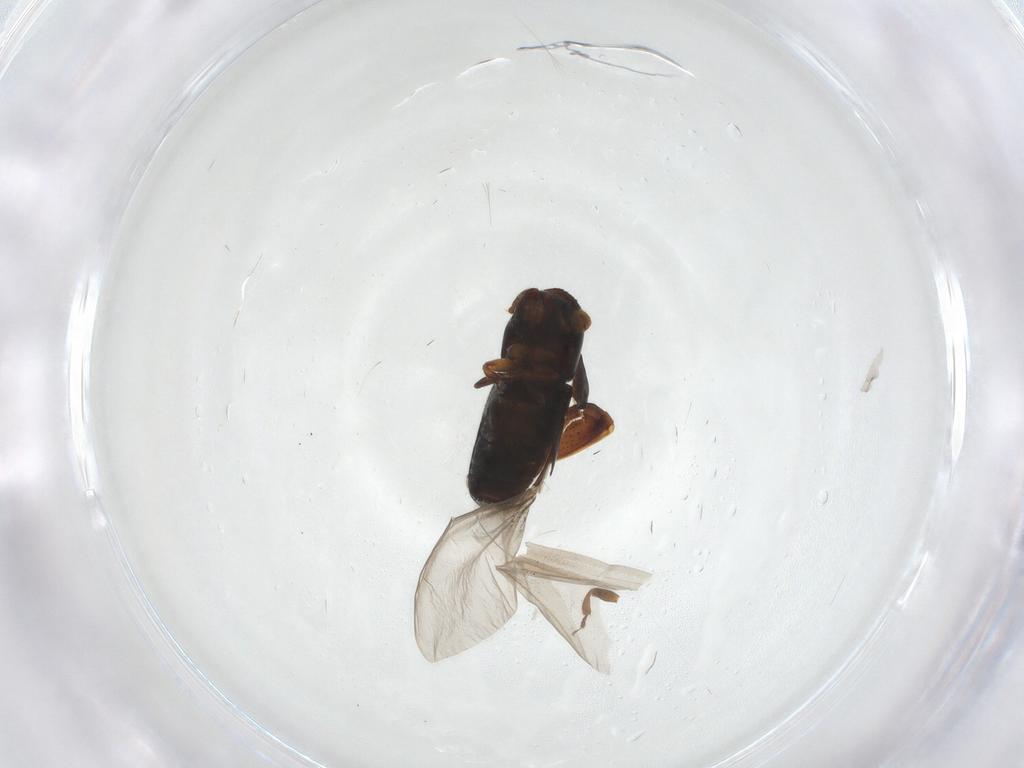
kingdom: Animalia
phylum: Arthropoda
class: Insecta
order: Coleoptera
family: Curculionidae
